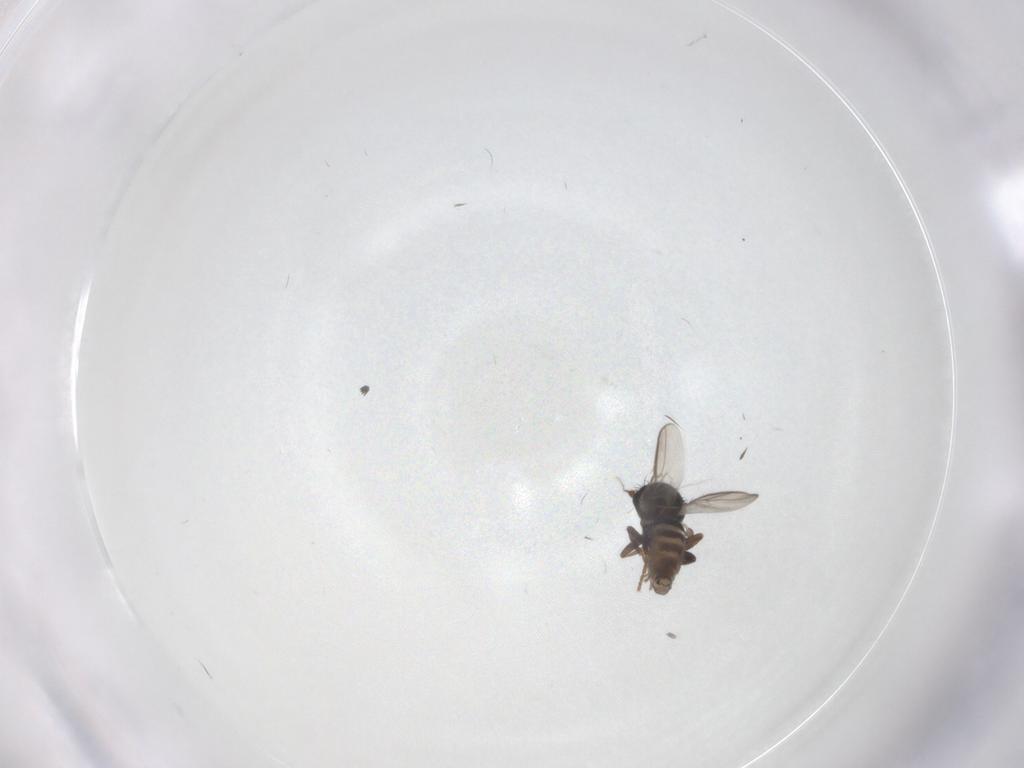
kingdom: Animalia
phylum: Arthropoda
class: Insecta
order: Diptera
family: Sphaeroceridae
